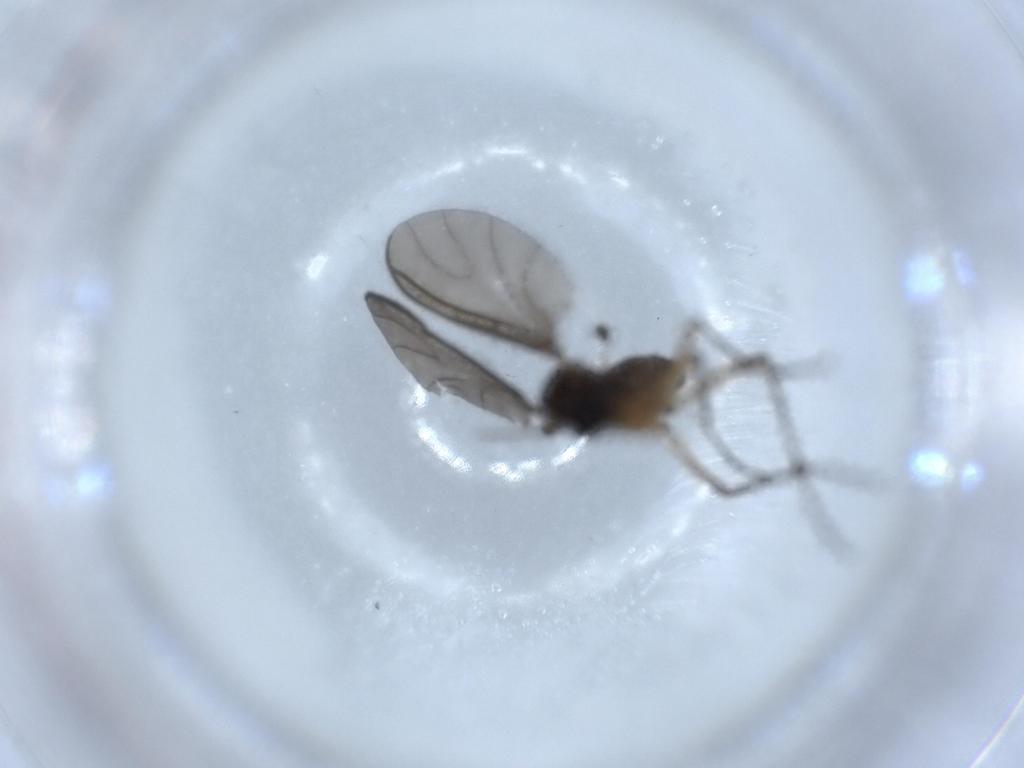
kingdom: Animalia
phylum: Arthropoda
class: Insecta
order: Diptera
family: Sciaridae
